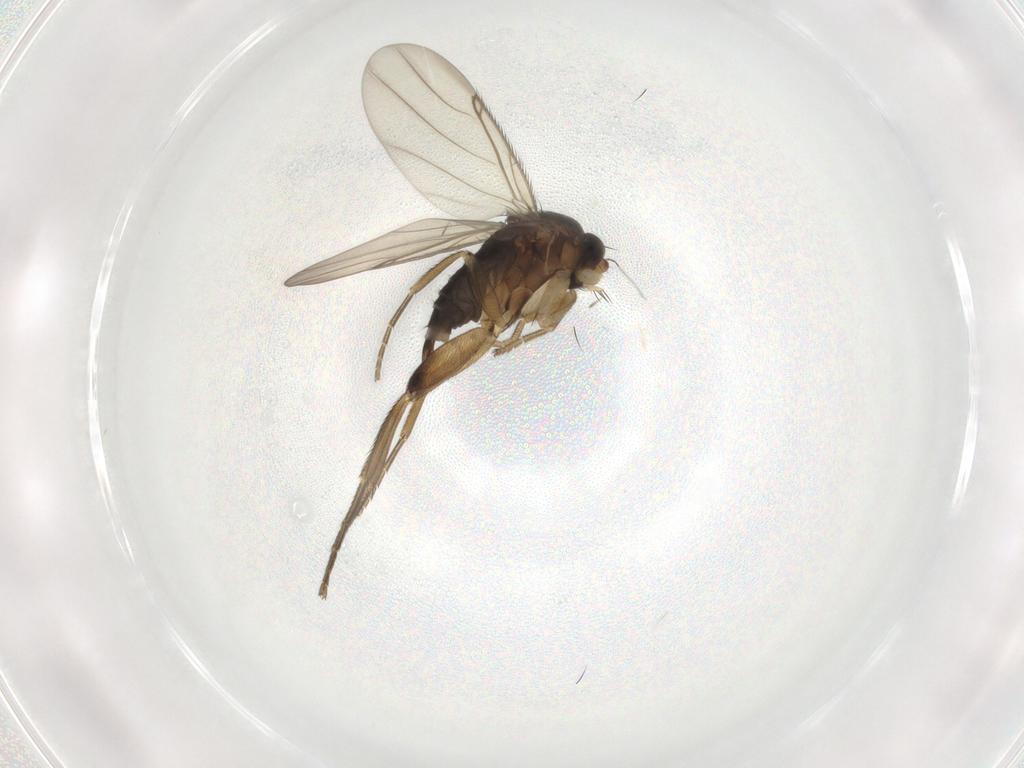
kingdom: Animalia
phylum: Arthropoda
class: Insecta
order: Diptera
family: Phoridae
